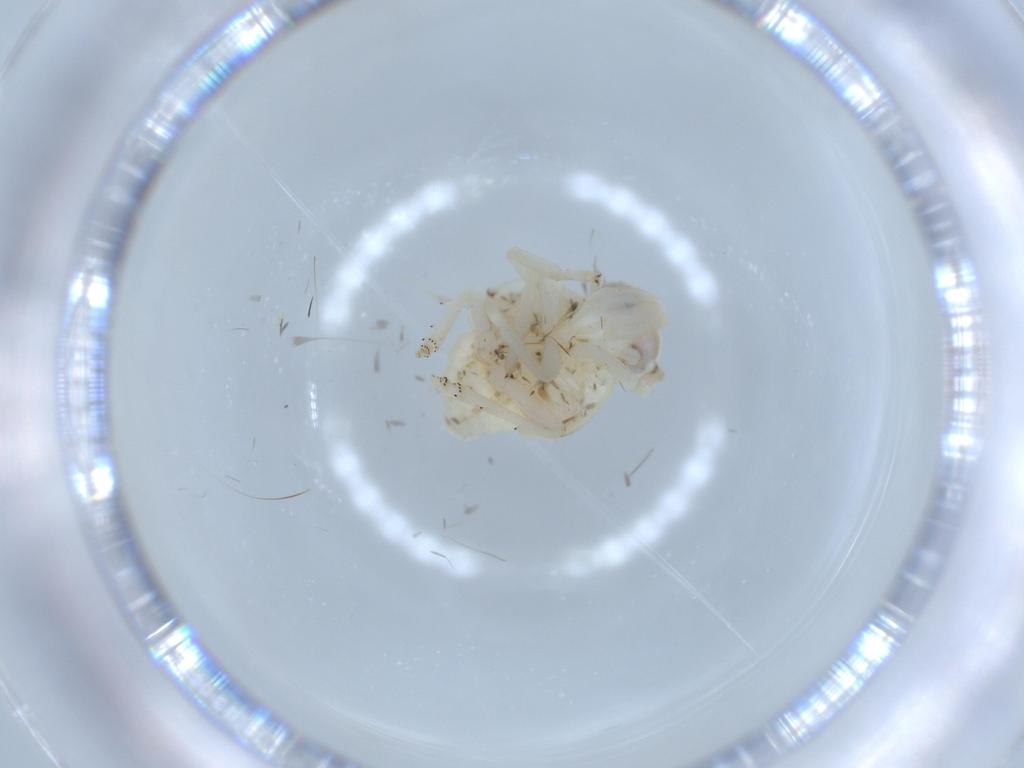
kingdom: Animalia
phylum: Arthropoda
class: Insecta
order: Hemiptera
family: Nogodinidae
